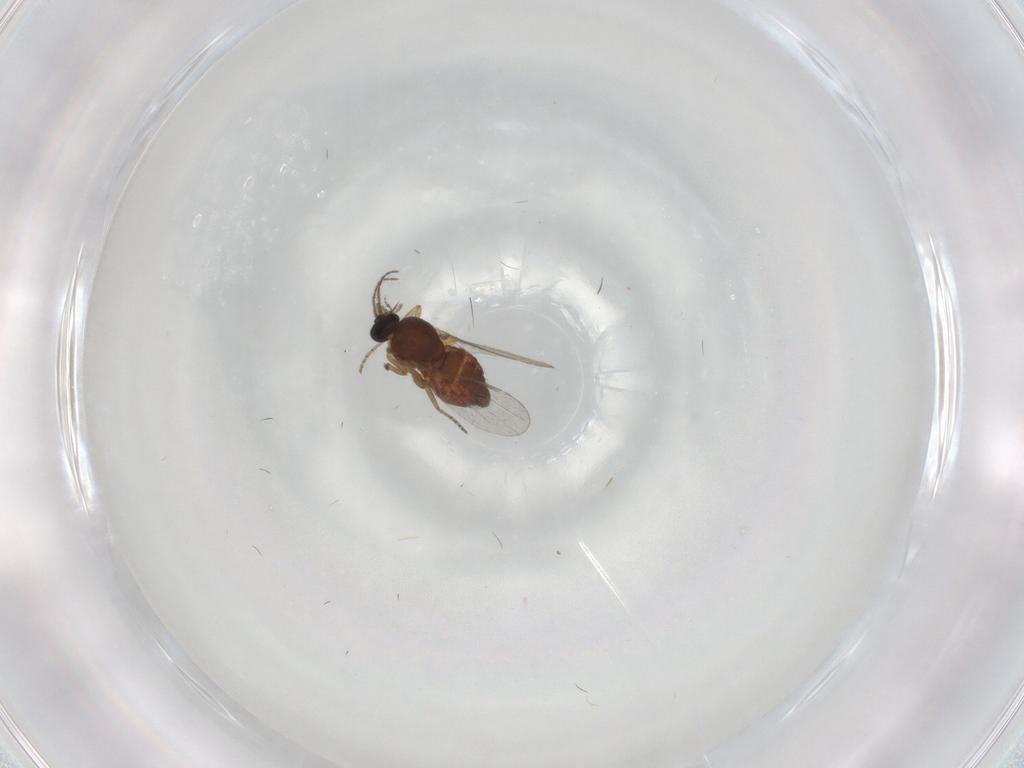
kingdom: Animalia
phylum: Arthropoda
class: Insecta
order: Diptera
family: Ceratopogonidae
